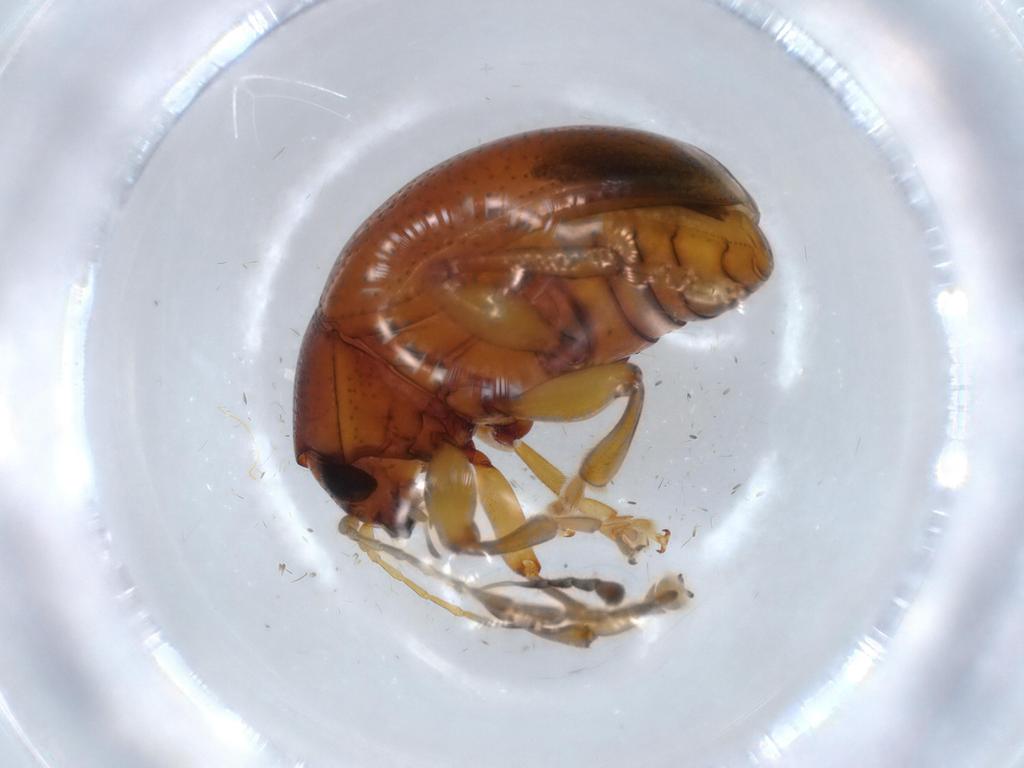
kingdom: Animalia
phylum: Arthropoda
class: Insecta
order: Coleoptera
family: Chrysomelidae
